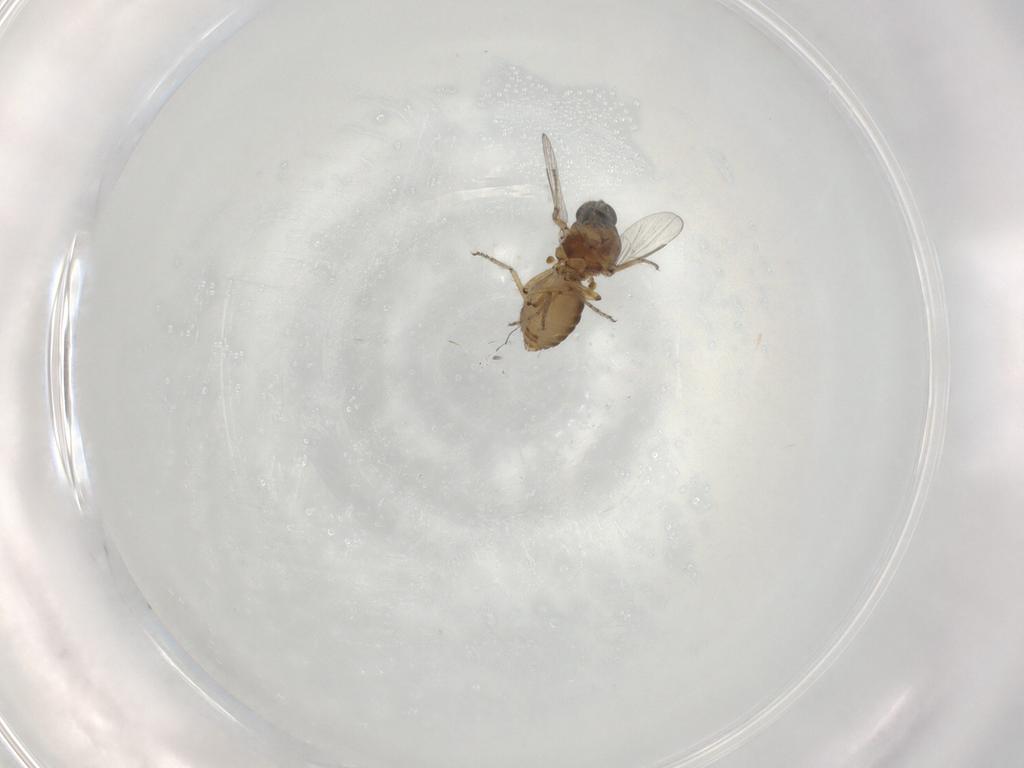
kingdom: Animalia
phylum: Arthropoda
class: Insecta
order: Diptera
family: Ceratopogonidae
